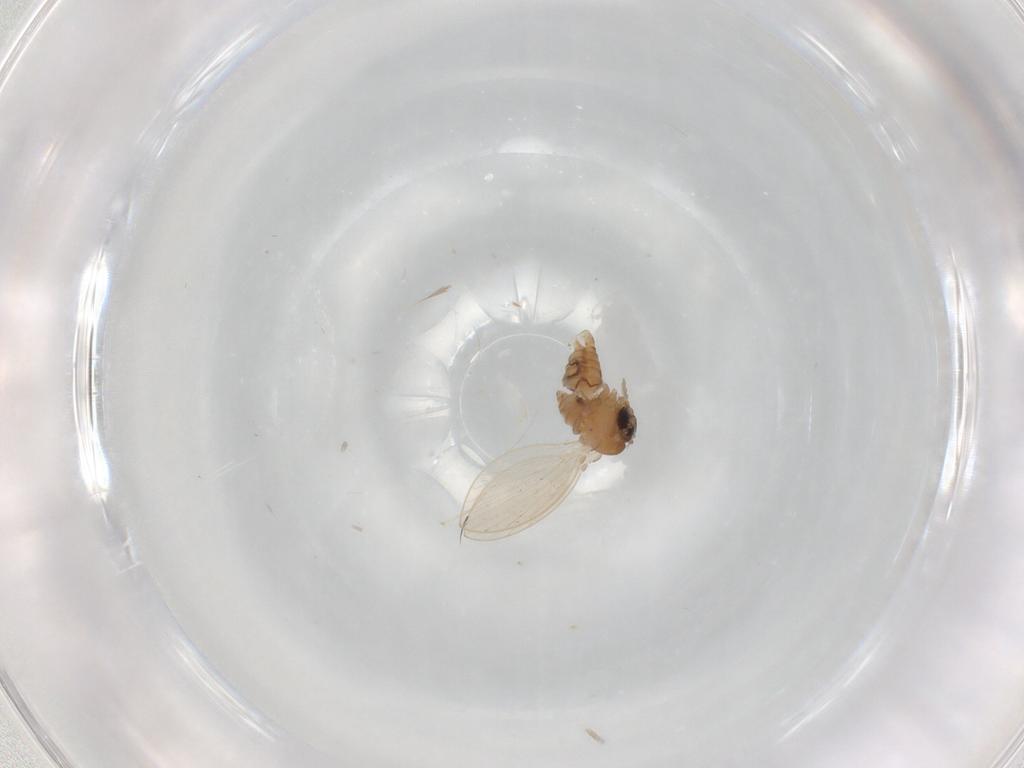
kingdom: Animalia
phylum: Arthropoda
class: Insecta
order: Diptera
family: Psychodidae
